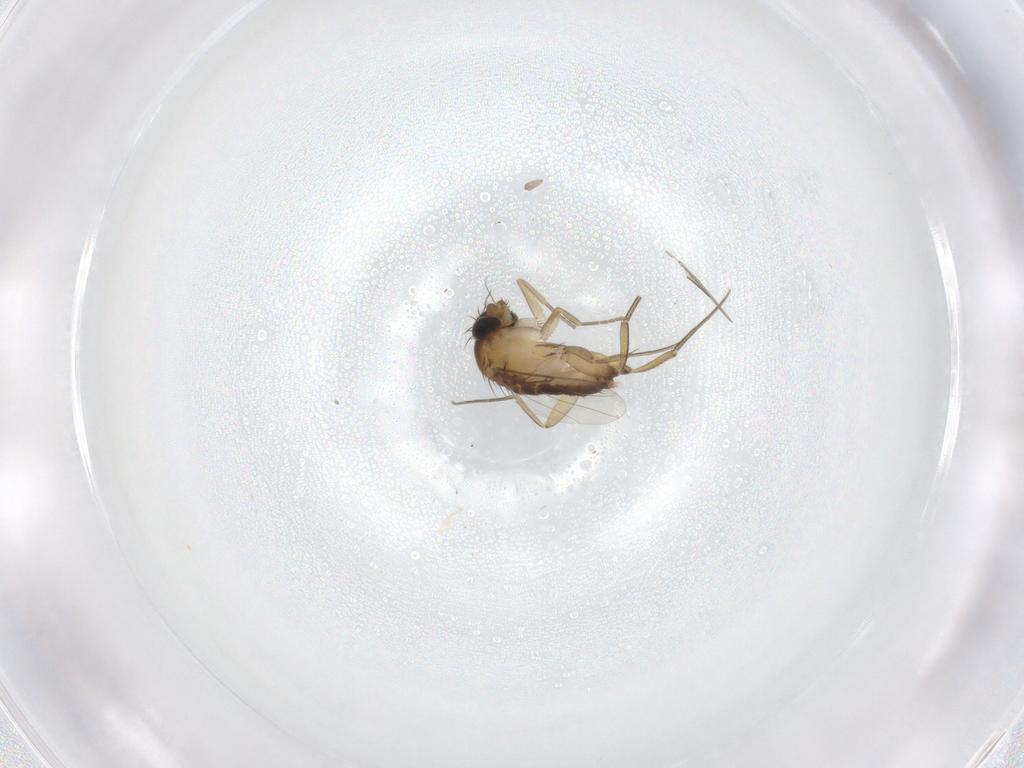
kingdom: Animalia
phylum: Arthropoda
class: Insecta
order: Diptera
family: Phoridae
